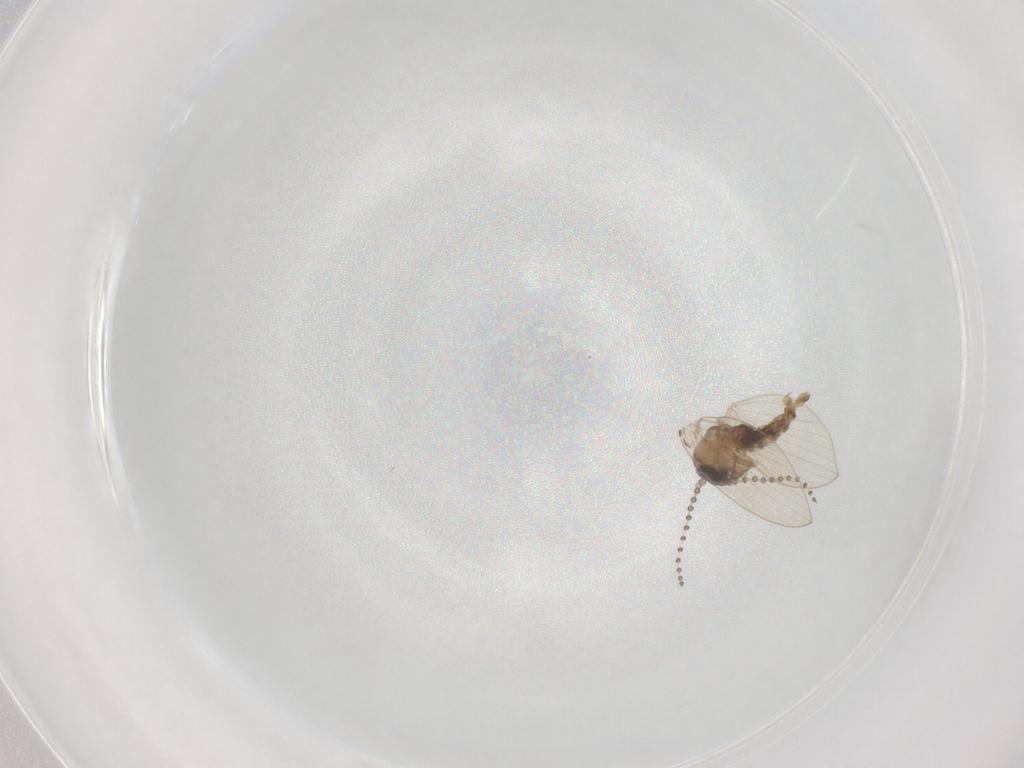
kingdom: Animalia
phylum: Arthropoda
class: Insecta
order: Diptera
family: Psychodidae
